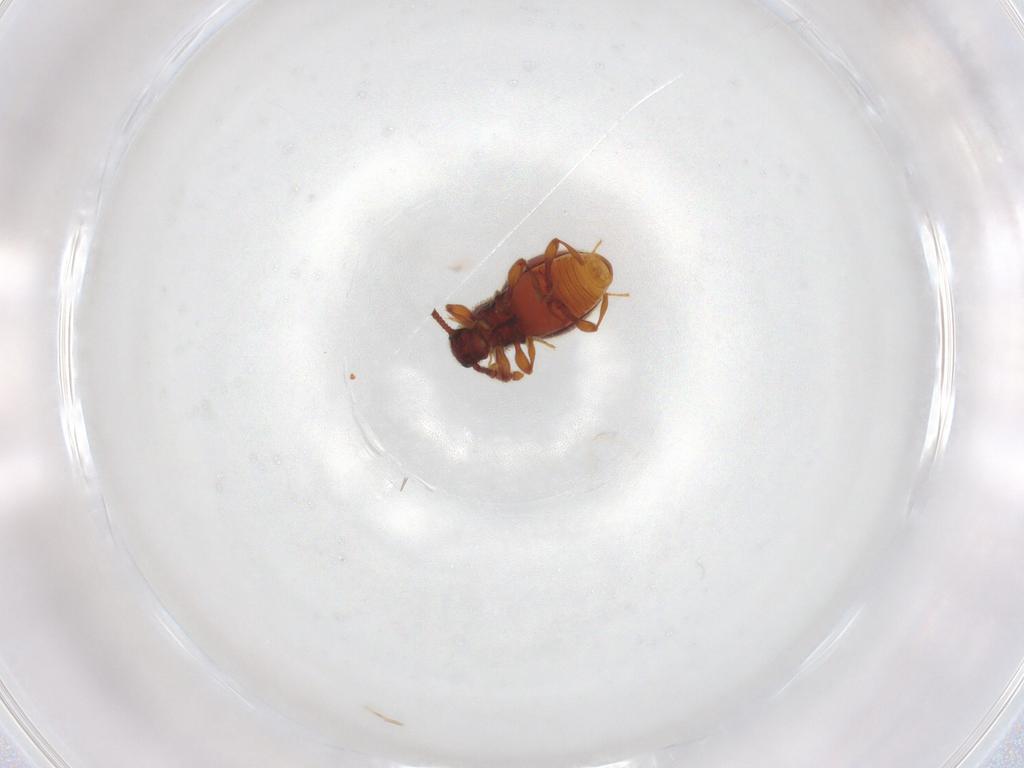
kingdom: Animalia
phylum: Arthropoda
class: Insecta
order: Coleoptera
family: Staphylinidae
